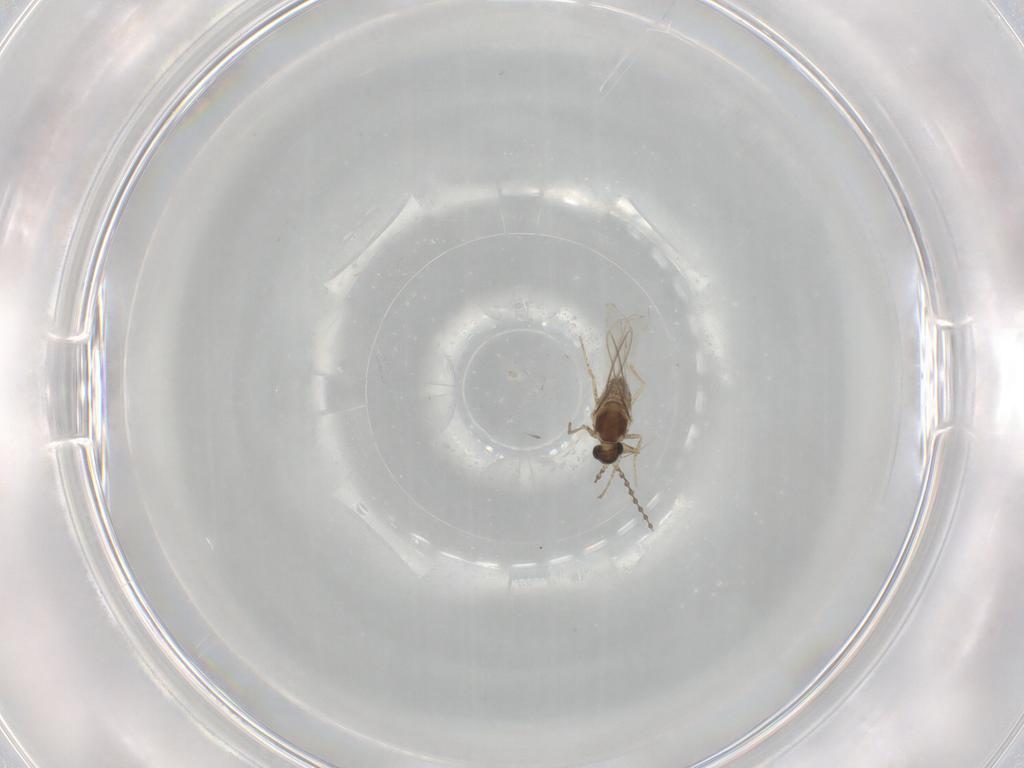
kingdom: Animalia
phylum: Arthropoda
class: Insecta
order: Diptera
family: Cecidomyiidae
